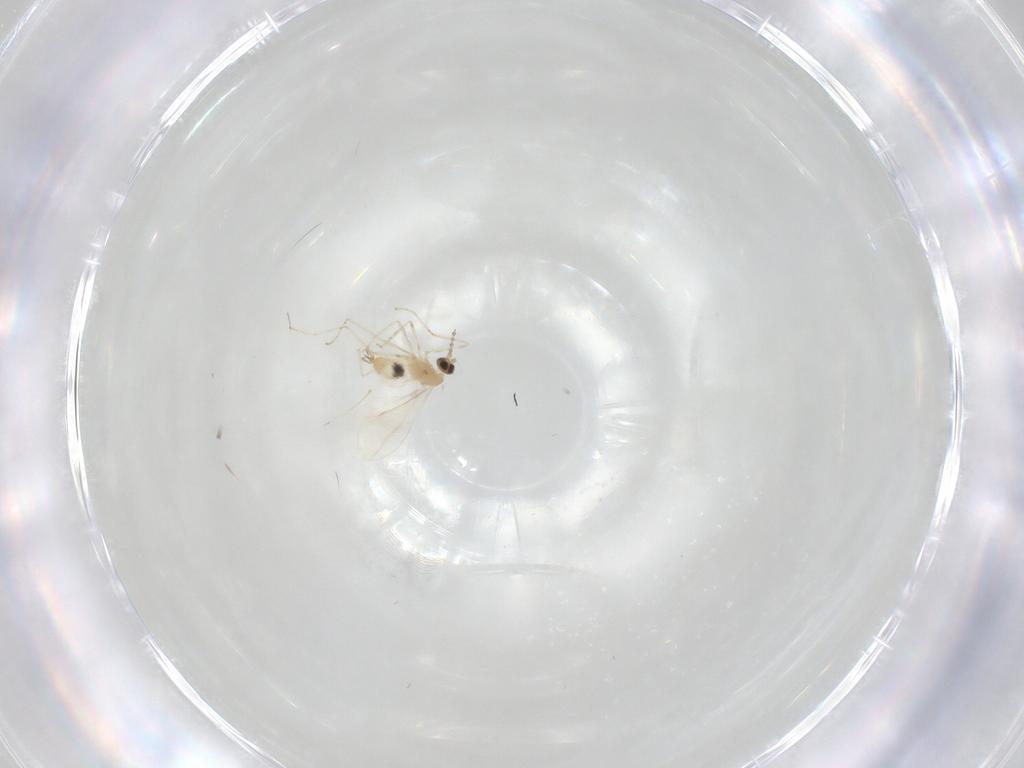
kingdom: Animalia
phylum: Arthropoda
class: Insecta
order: Diptera
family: Cecidomyiidae
